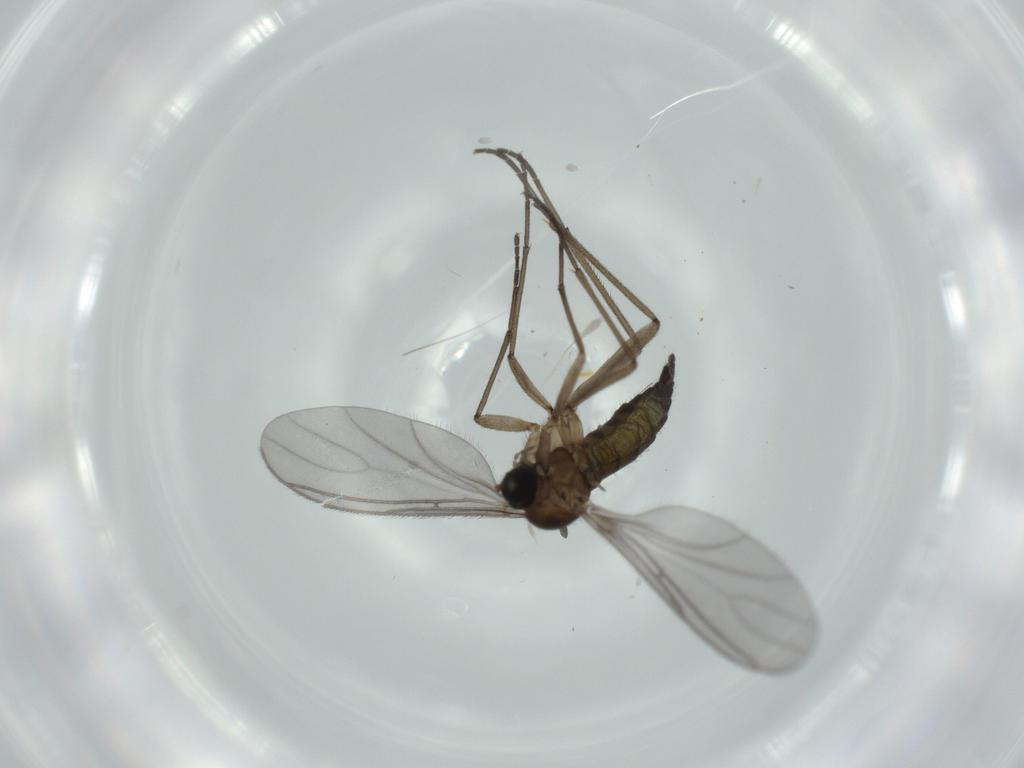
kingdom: Animalia
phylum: Arthropoda
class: Insecta
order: Diptera
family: Sciaridae
